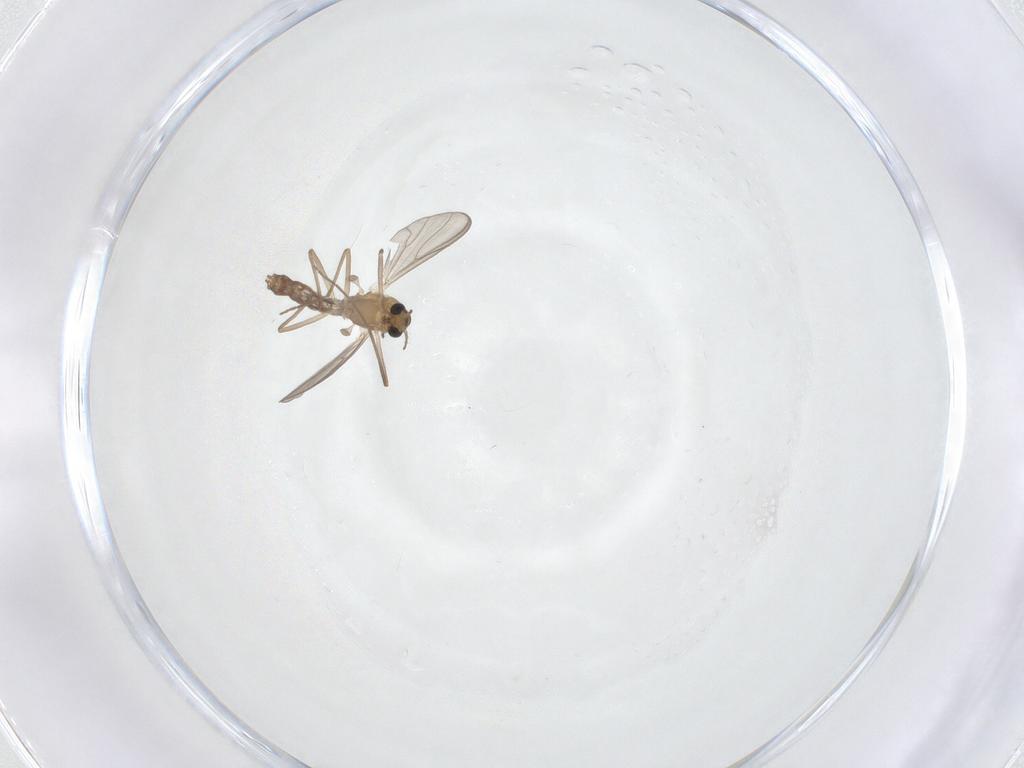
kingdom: Animalia
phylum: Arthropoda
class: Insecta
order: Diptera
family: Chironomidae
